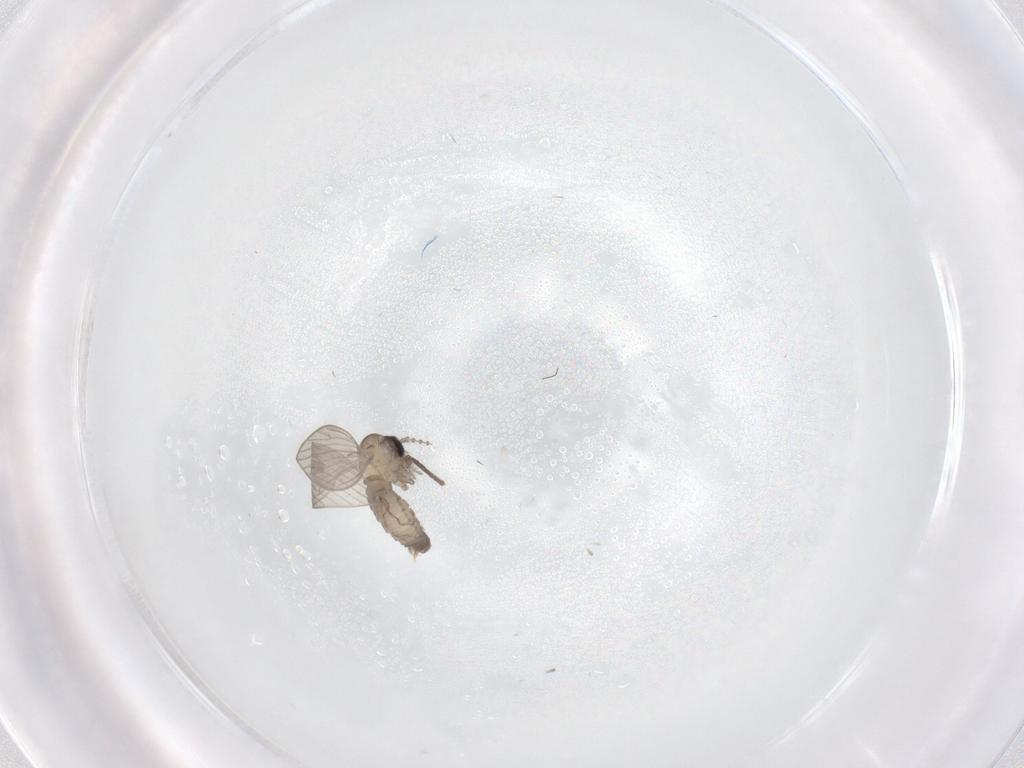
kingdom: Animalia
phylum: Arthropoda
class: Insecta
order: Diptera
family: Psychodidae
